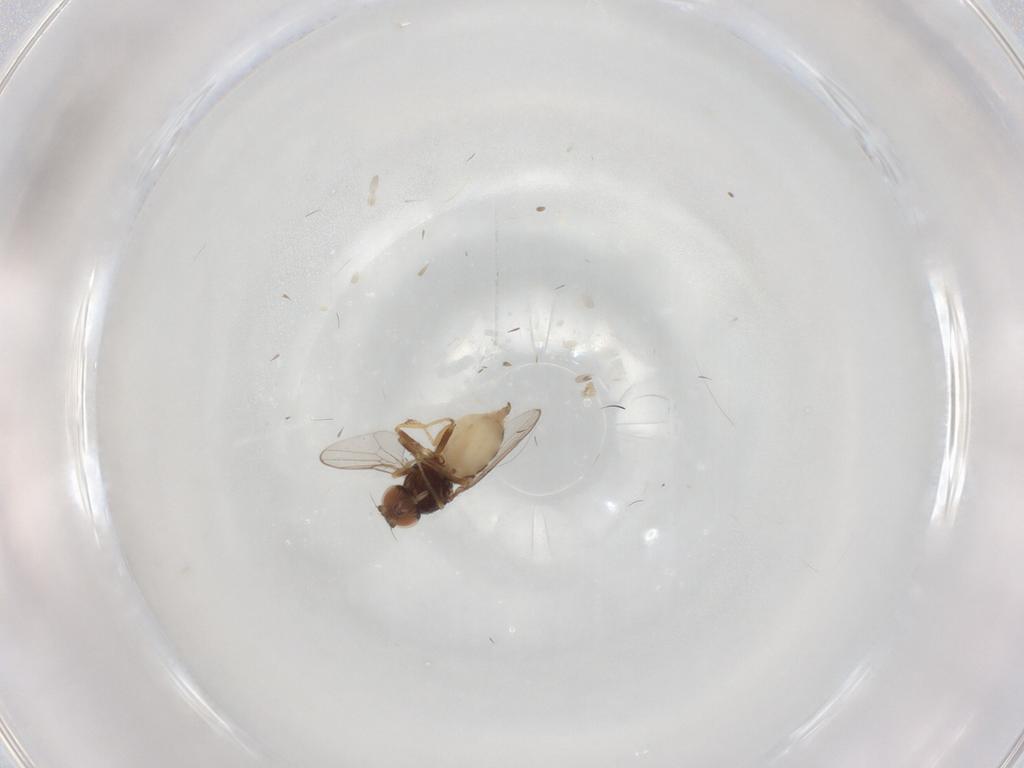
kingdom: Animalia
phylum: Arthropoda
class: Insecta
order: Diptera
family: Chloropidae
